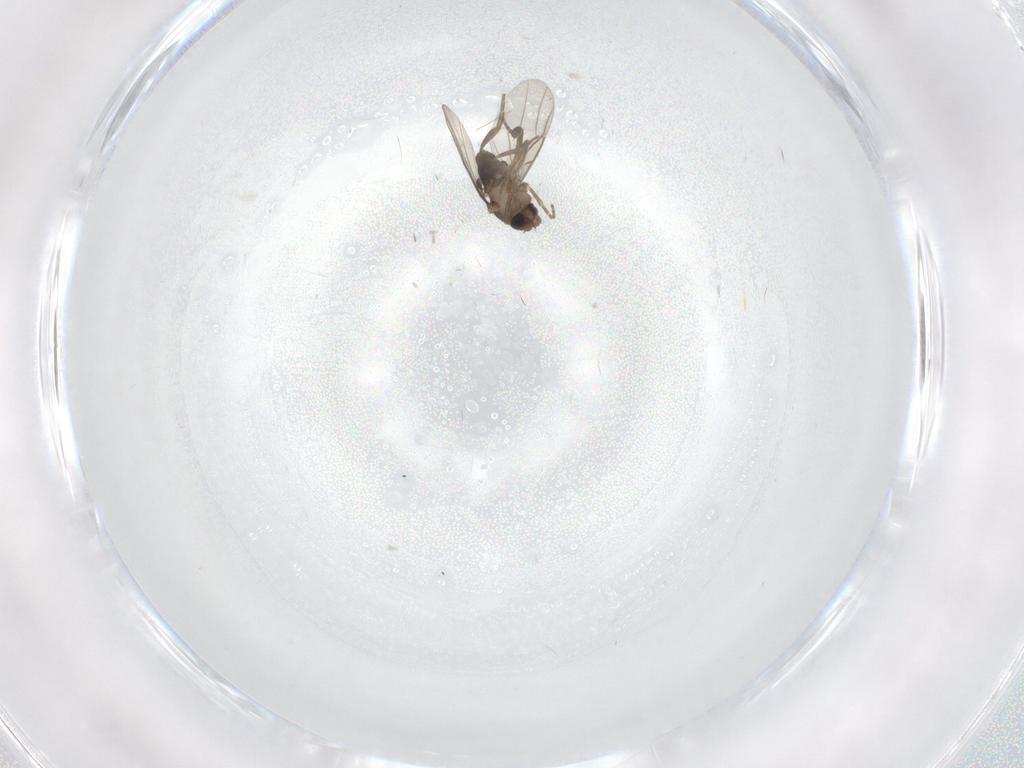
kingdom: Animalia
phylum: Arthropoda
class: Insecta
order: Diptera
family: Phoridae
